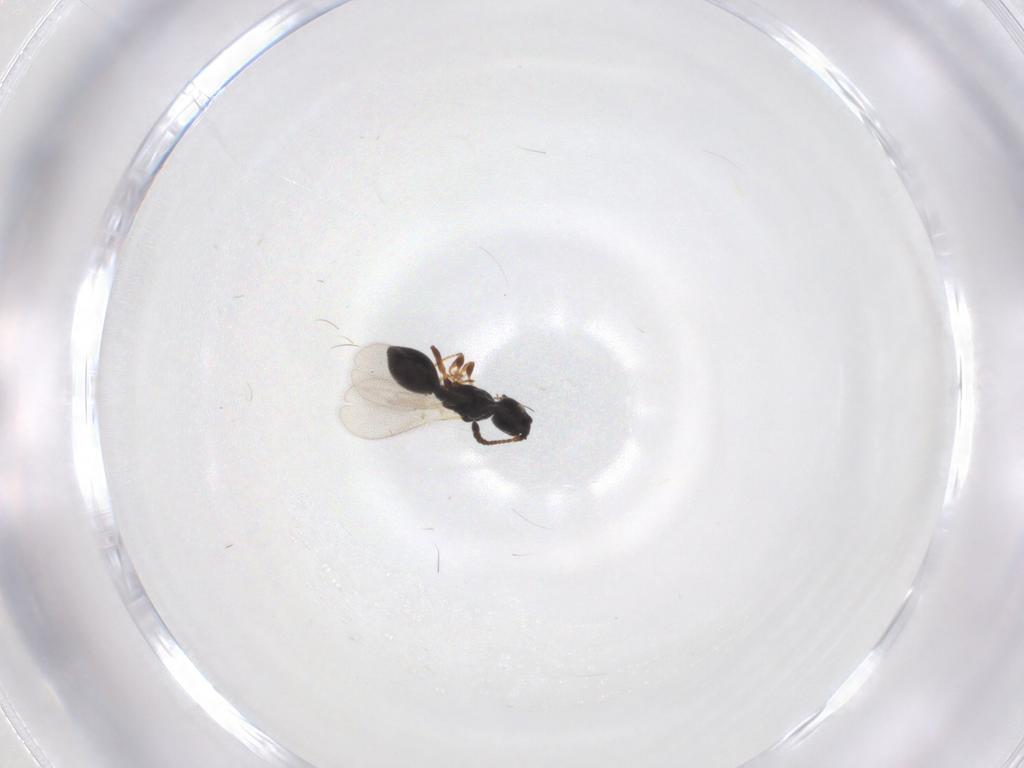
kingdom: Animalia
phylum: Arthropoda
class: Insecta
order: Hymenoptera
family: Diapriidae
